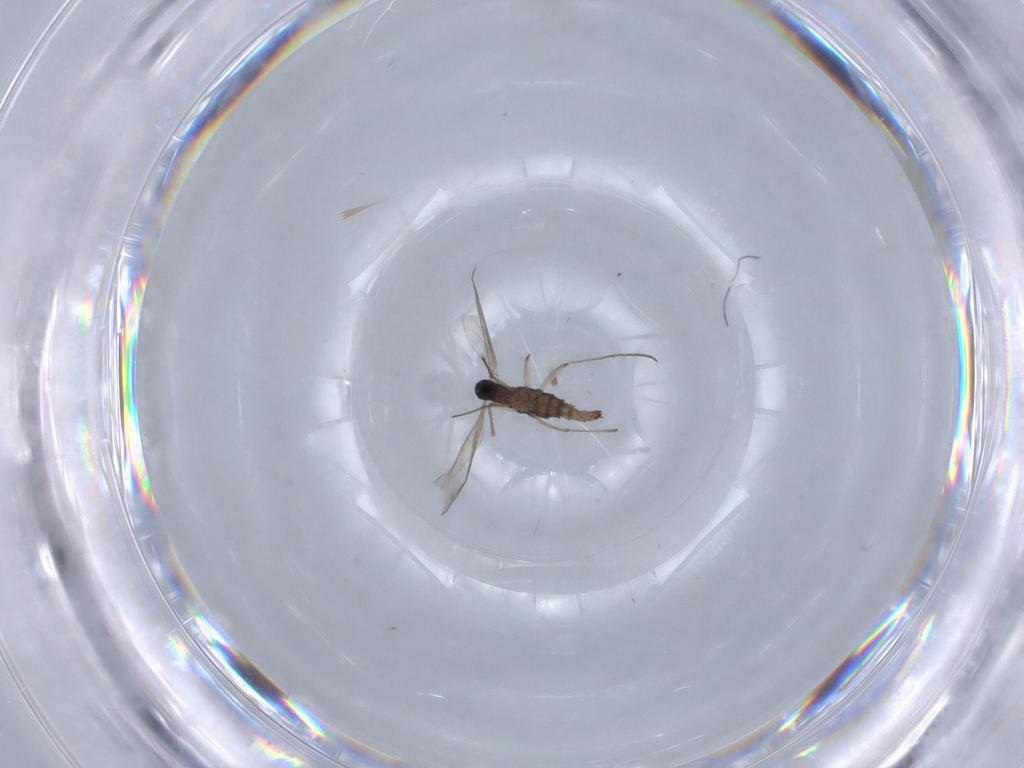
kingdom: Animalia
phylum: Arthropoda
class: Insecta
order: Diptera
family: Sciaridae
